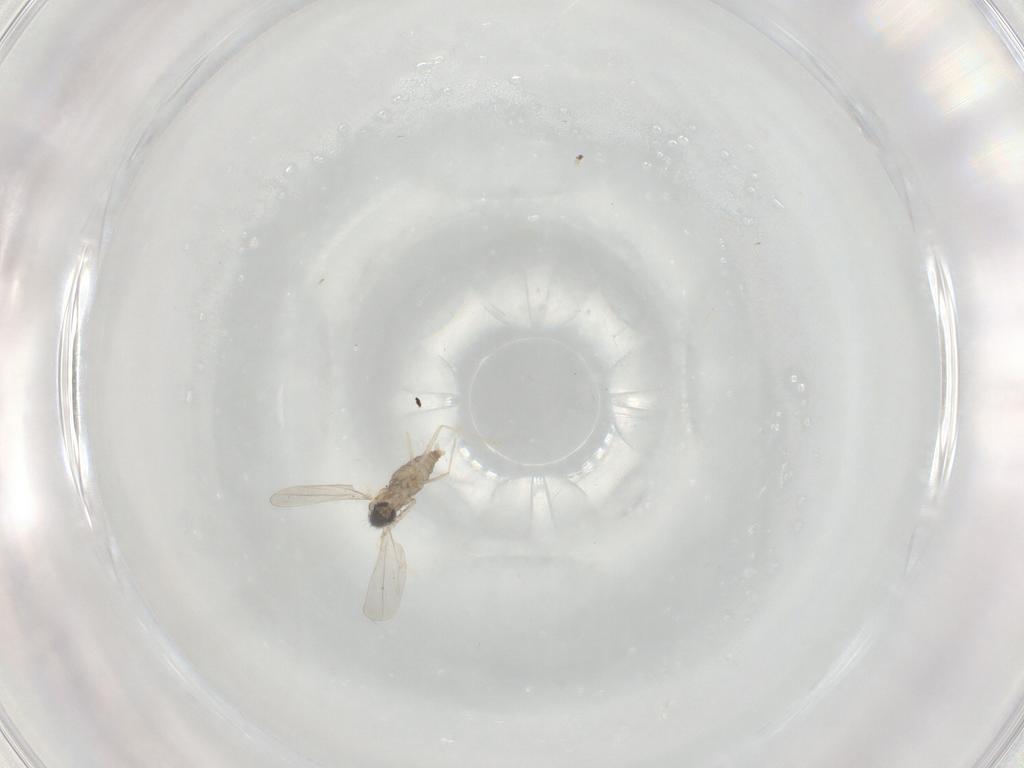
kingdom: Animalia
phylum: Arthropoda
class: Insecta
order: Diptera
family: Cecidomyiidae
